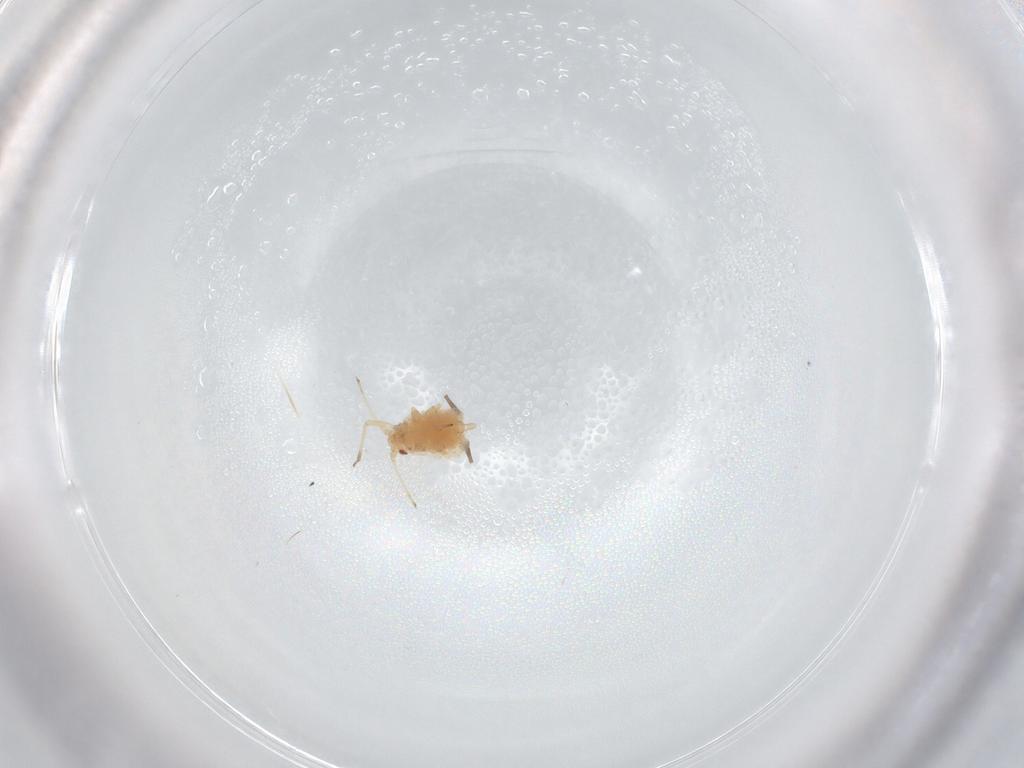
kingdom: Animalia
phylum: Arthropoda
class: Insecta
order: Hemiptera
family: Aphididae
